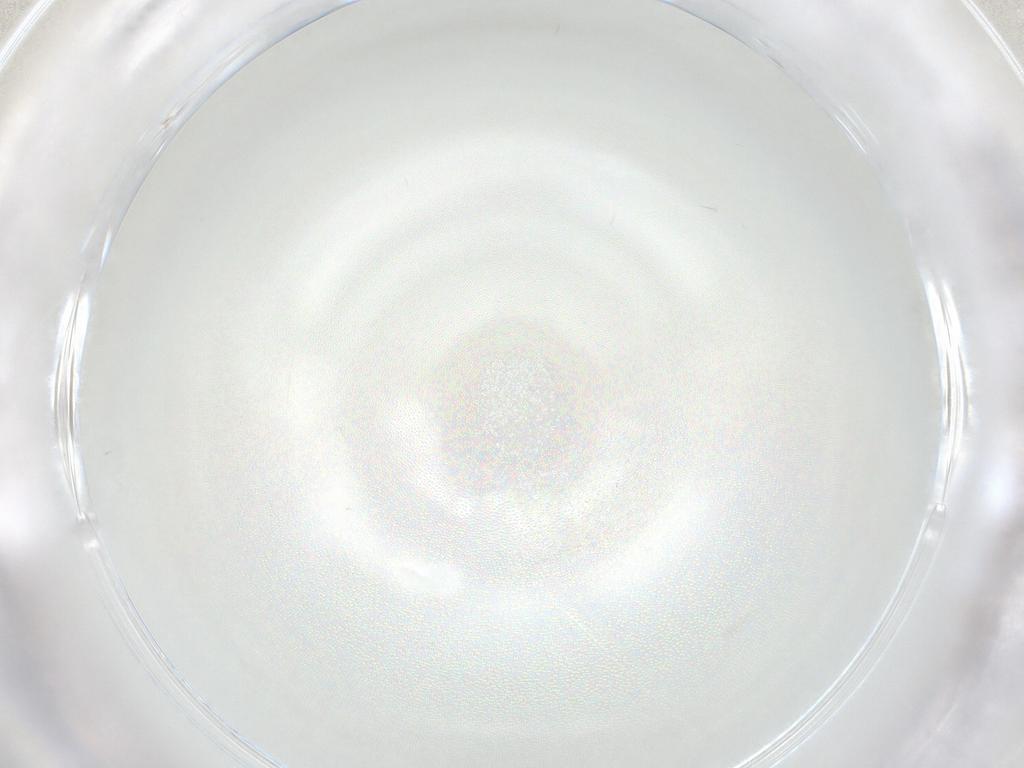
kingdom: Animalia
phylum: Arthropoda
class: Arachnida
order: Trombidiformes
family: Anystidae
